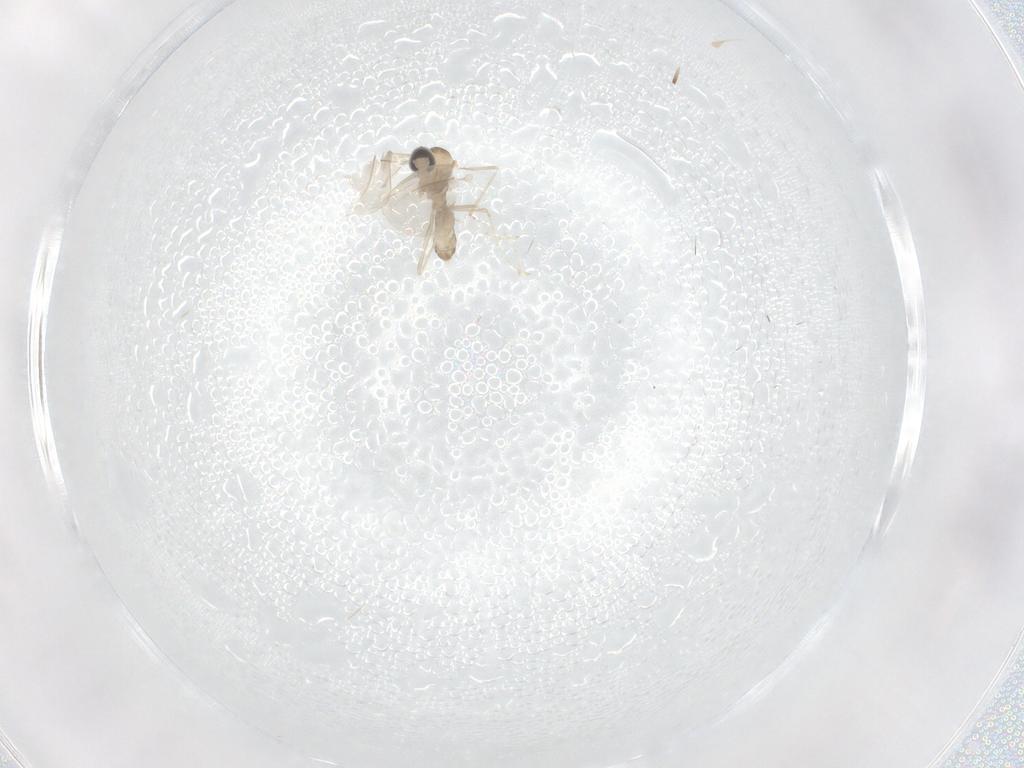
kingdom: Animalia
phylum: Arthropoda
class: Insecta
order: Diptera
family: Cecidomyiidae
